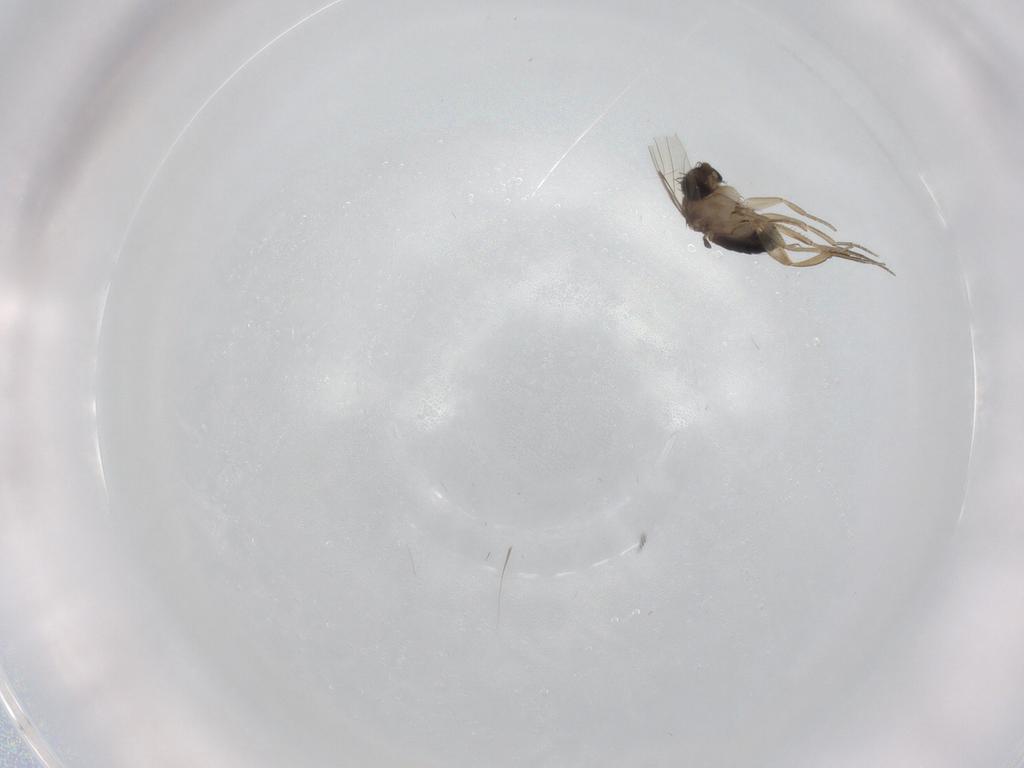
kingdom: Animalia
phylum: Arthropoda
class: Insecta
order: Diptera
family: Phoridae
